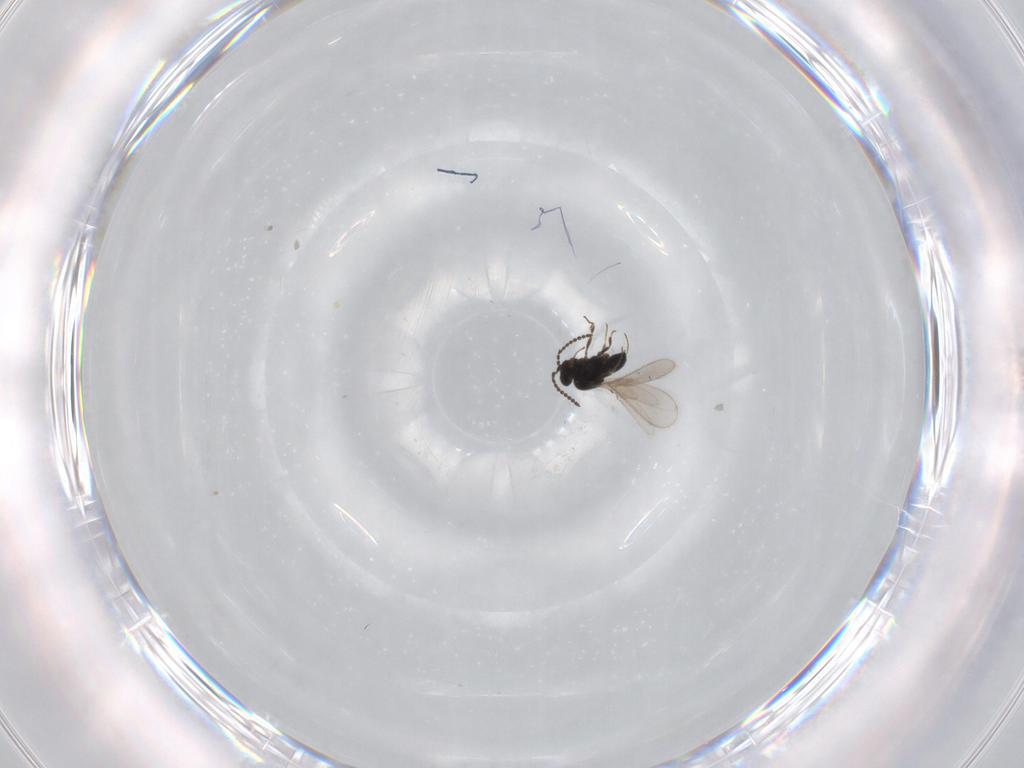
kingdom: Animalia
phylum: Arthropoda
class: Insecta
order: Hymenoptera
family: Scelionidae
